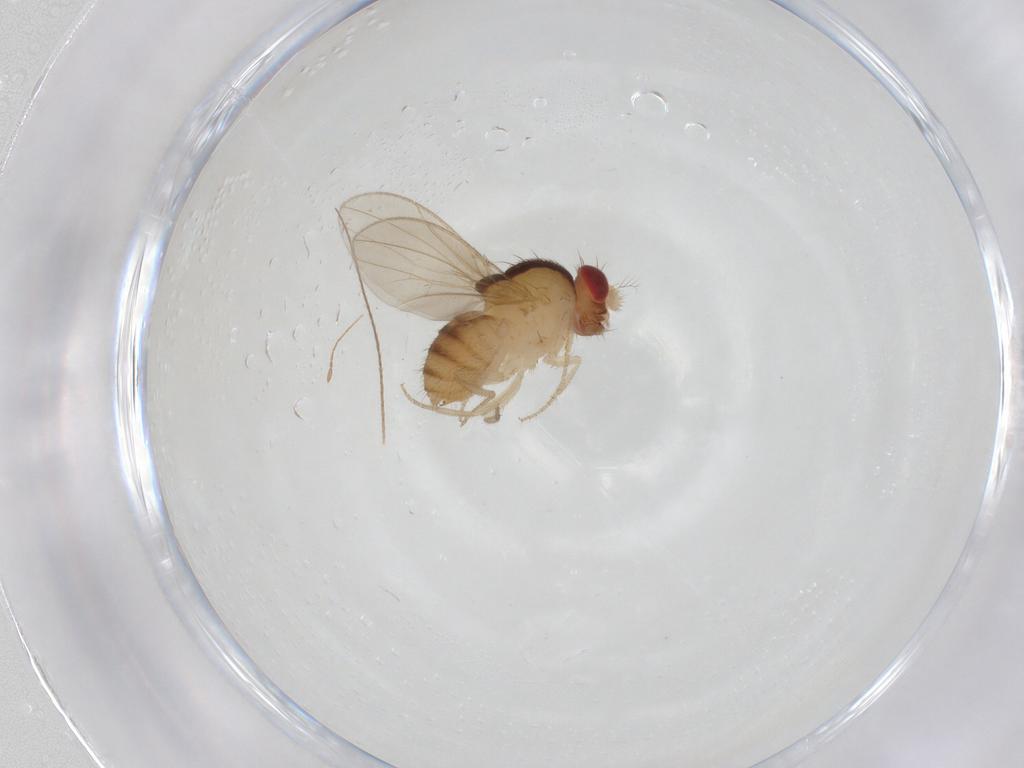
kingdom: Animalia
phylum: Arthropoda
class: Insecta
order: Diptera
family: Drosophilidae
